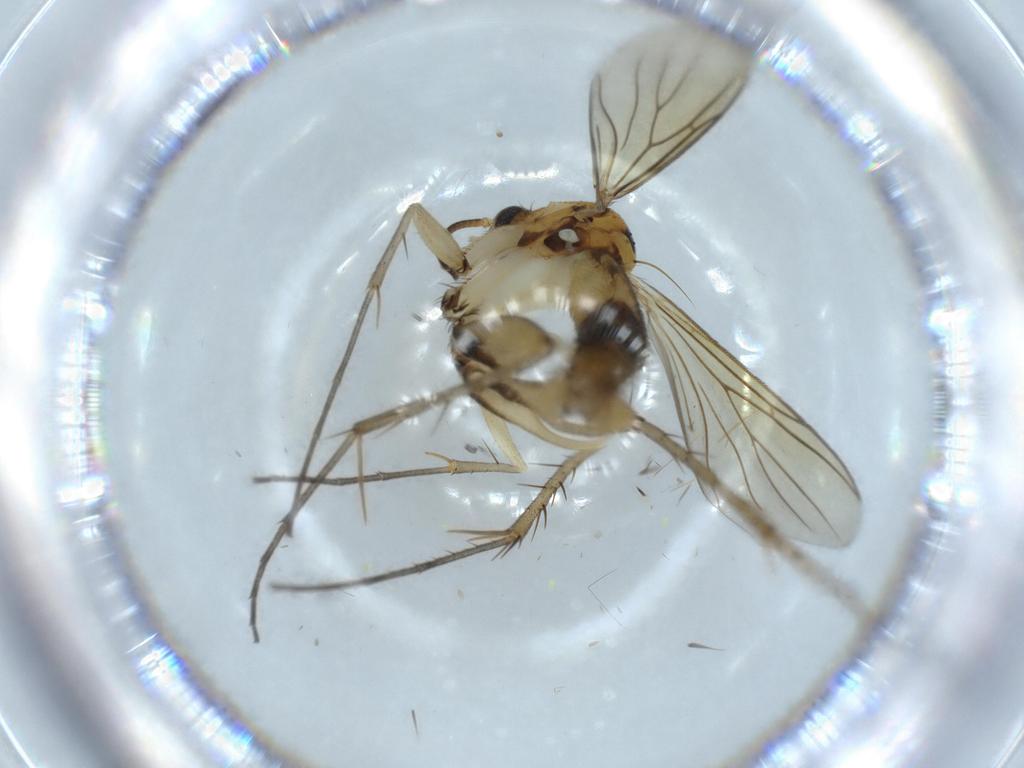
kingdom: Animalia
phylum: Arthropoda
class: Insecta
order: Diptera
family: Mycetophilidae
